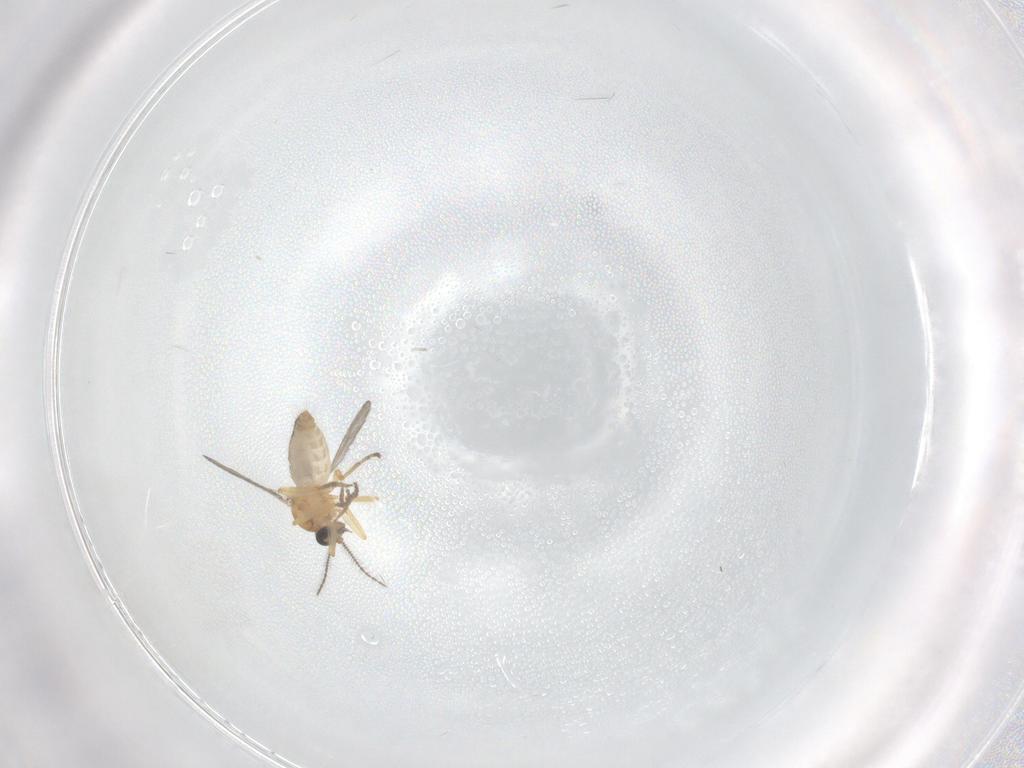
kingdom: Animalia
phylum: Arthropoda
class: Insecta
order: Diptera
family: Ceratopogonidae
